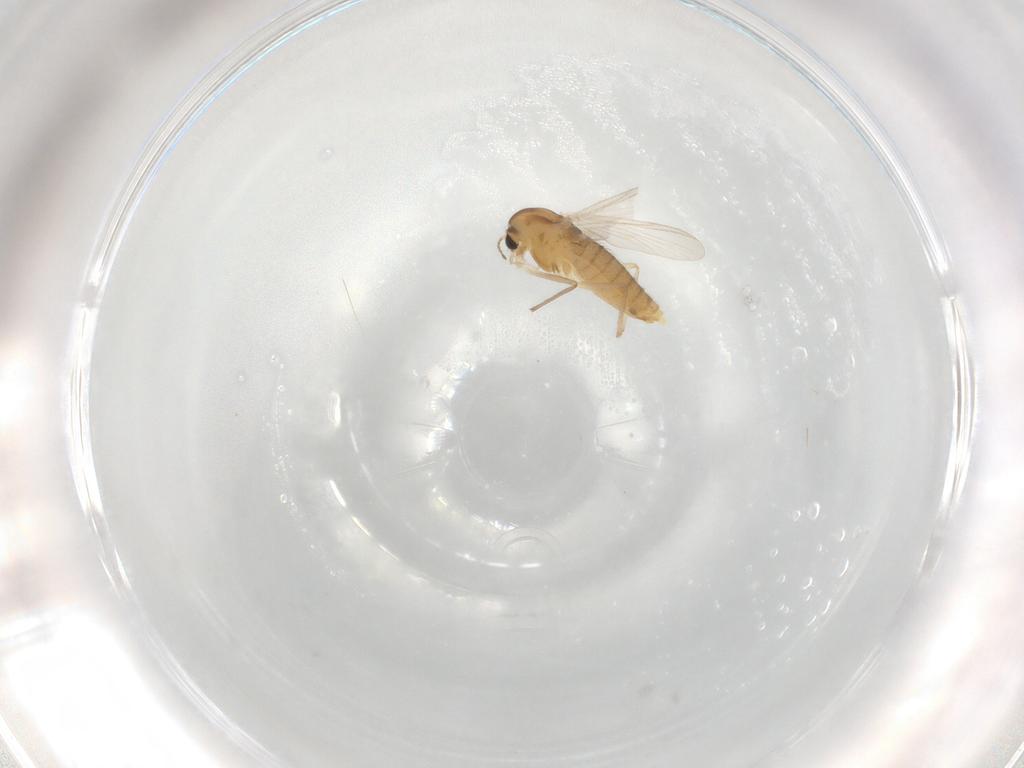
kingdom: Animalia
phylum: Arthropoda
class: Insecta
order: Diptera
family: Chironomidae
